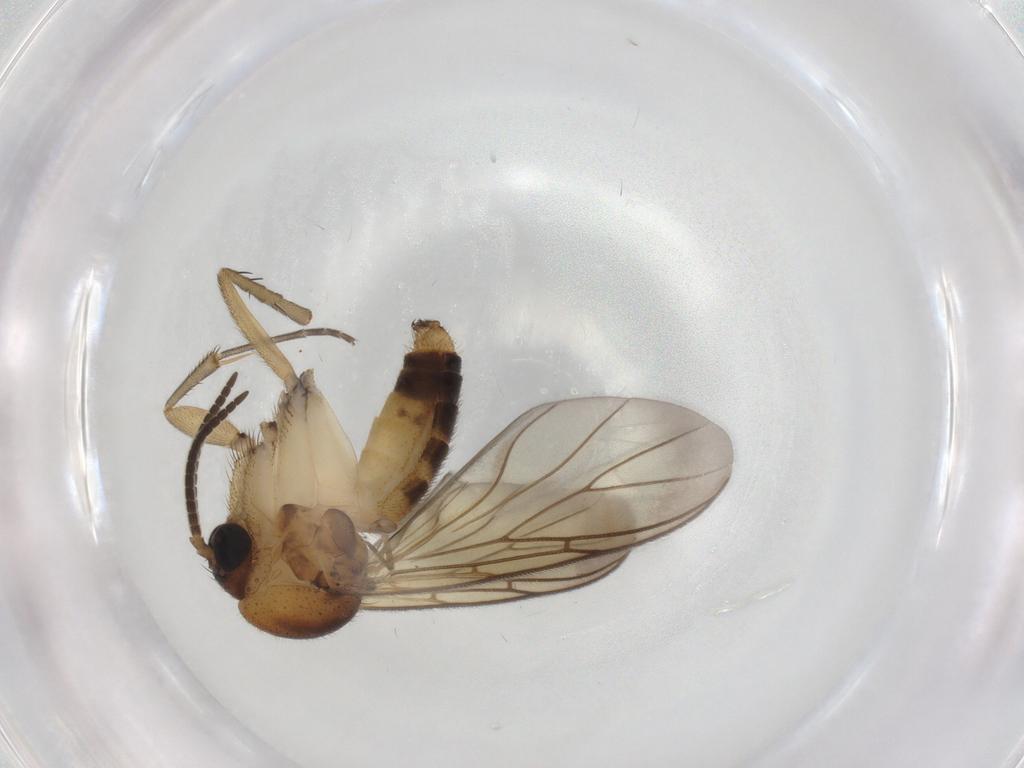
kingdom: Animalia
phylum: Arthropoda
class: Insecta
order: Diptera
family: Mycetophilidae
